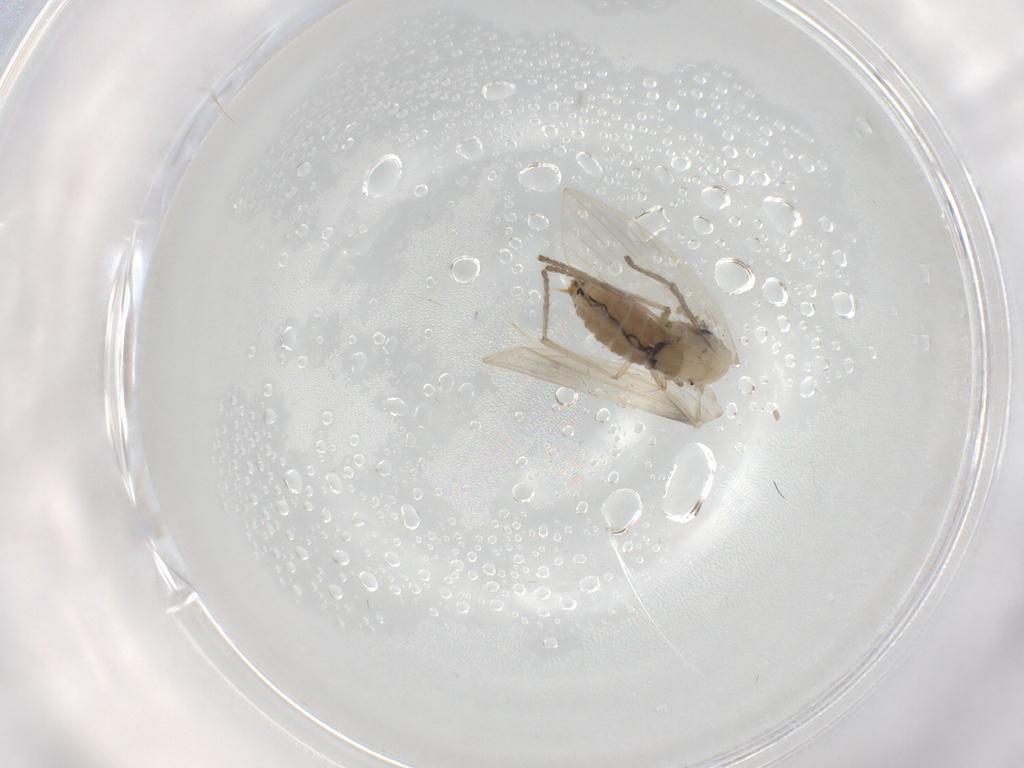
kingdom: Animalia
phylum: Arthropoda
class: Insecta
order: Diptera
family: Psychodidae
